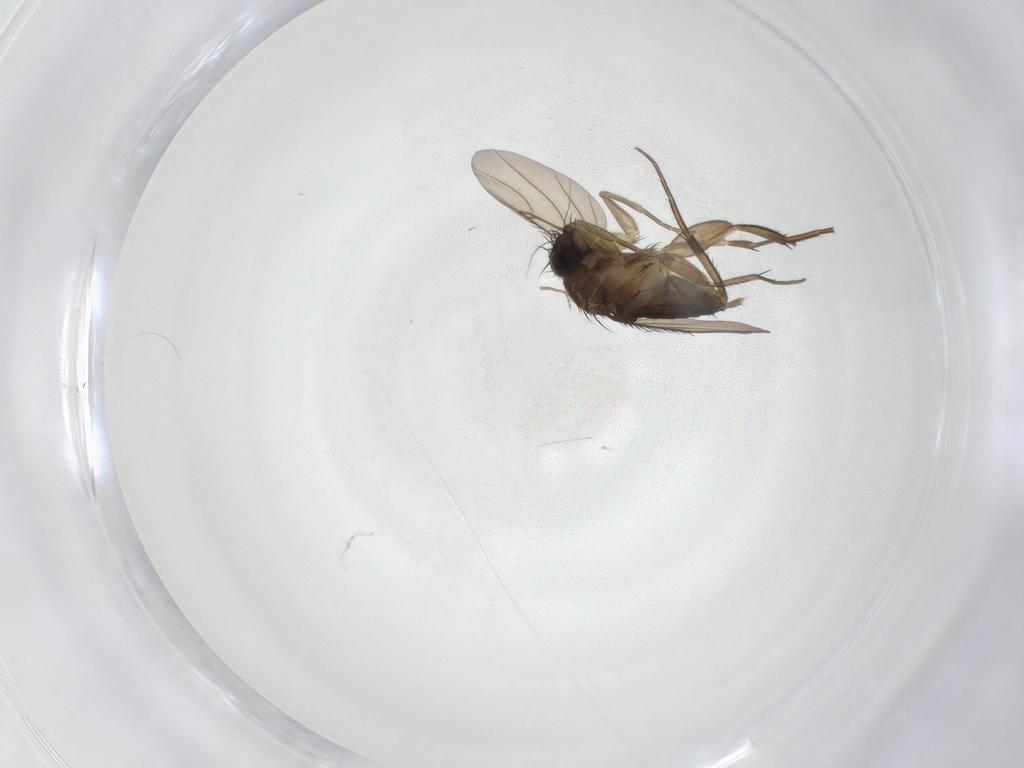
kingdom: Animalia
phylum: Arthropoda
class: Insecta
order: Diptera
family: Phoridae
